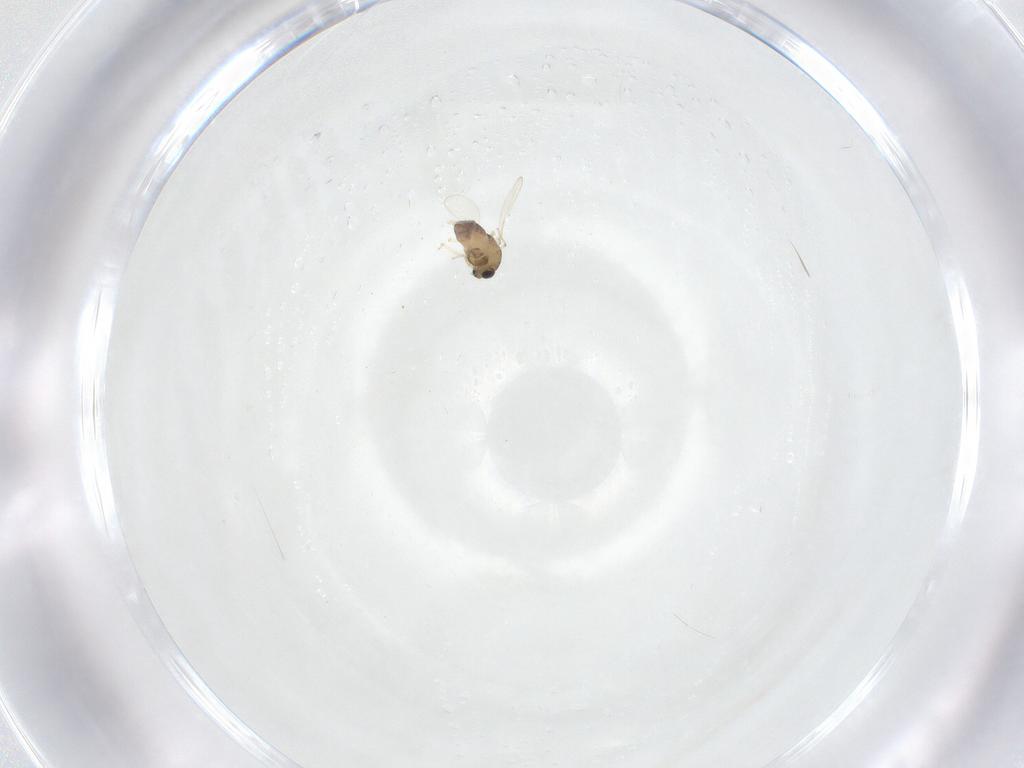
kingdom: Animalia
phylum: Arthropoda
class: Insecta
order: Diptera
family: Chironomidae
